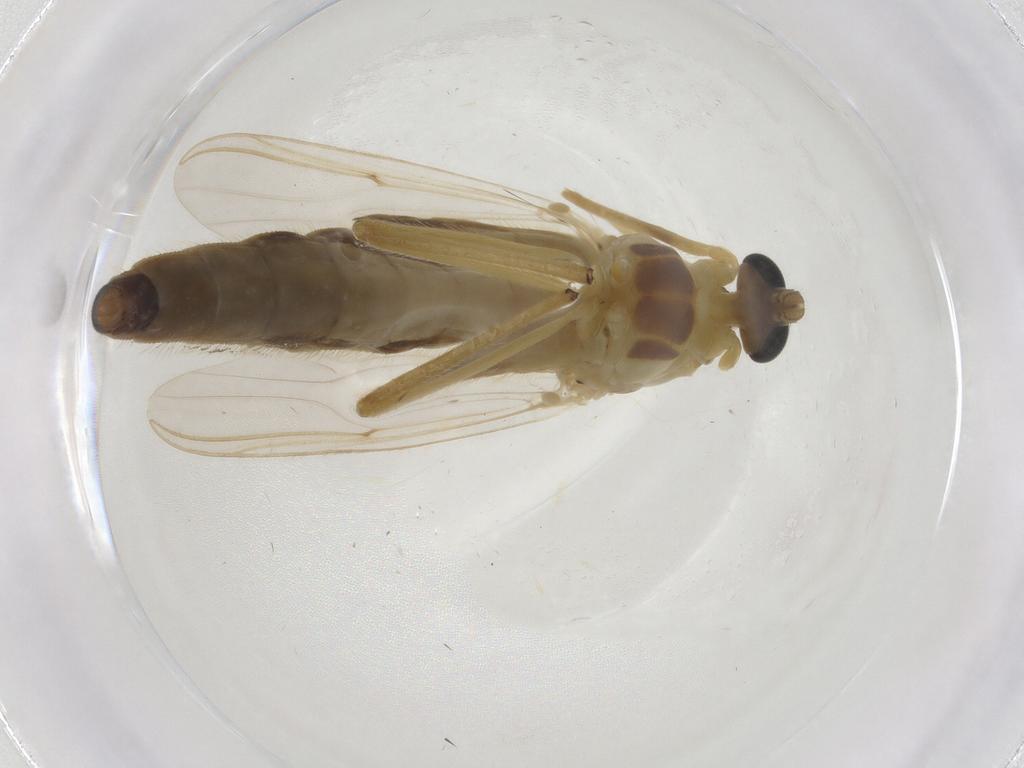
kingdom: Animalia
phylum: Arthropoda
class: Insecta
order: Diptera
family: Chironomidae
